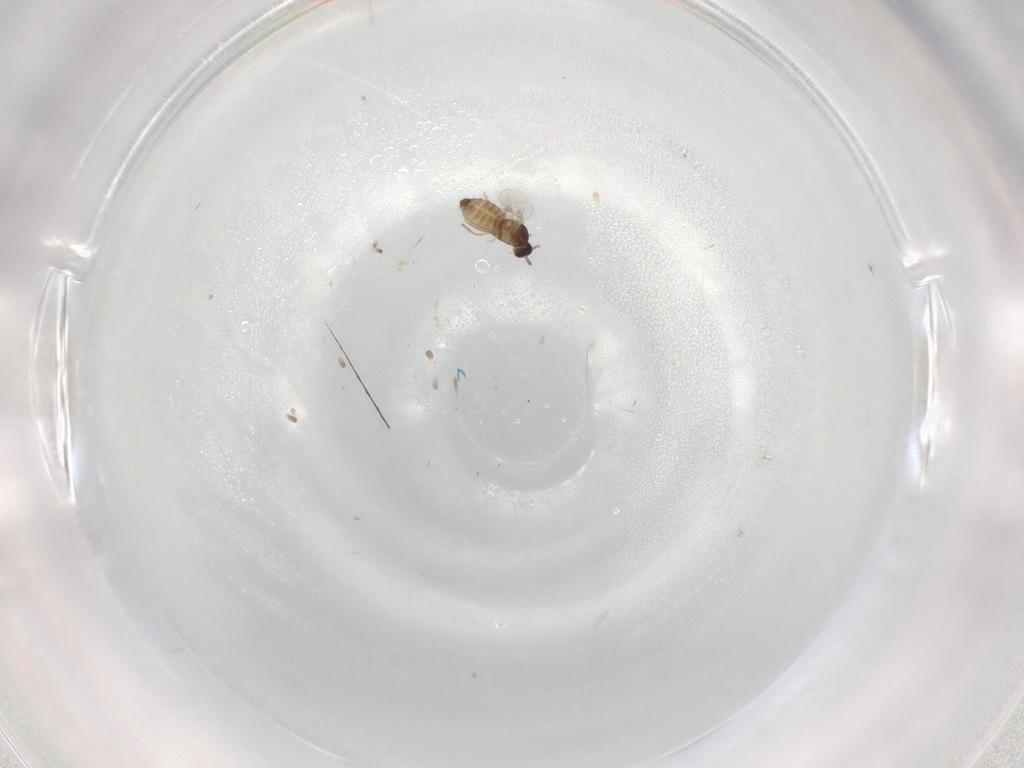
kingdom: Animalia
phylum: Arthropoda
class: Insecta
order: Diptera
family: Cecidomyiidae
